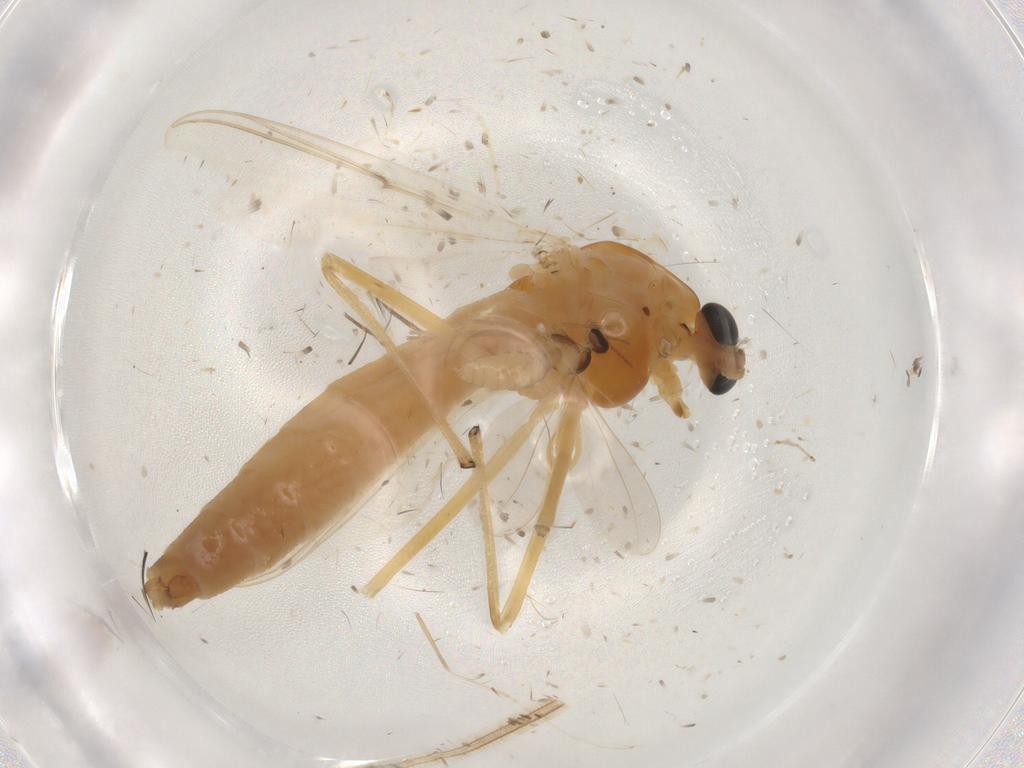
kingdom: Animalia
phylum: Arthropoda
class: Insecta
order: Diptera
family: Chironomidae
